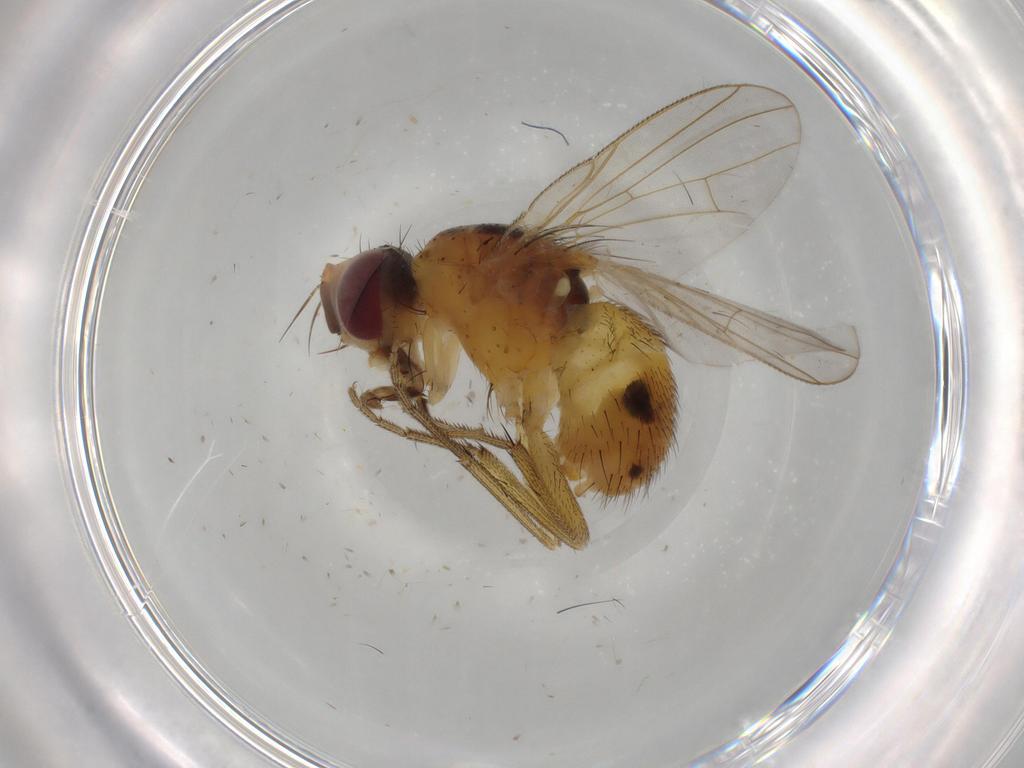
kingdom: Animalia
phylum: Arthropoda
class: Insecta
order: Diptera
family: Muscidae
